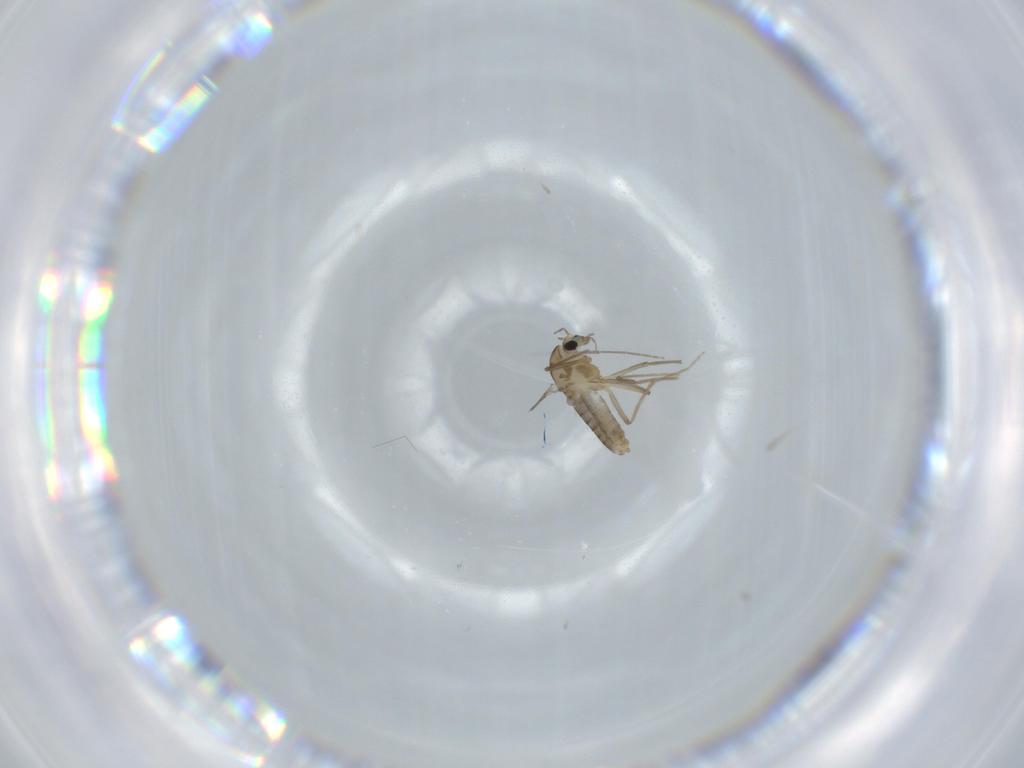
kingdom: Animalia
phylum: Arthropoda
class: Insecta
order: Diptera
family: Chironomidae
